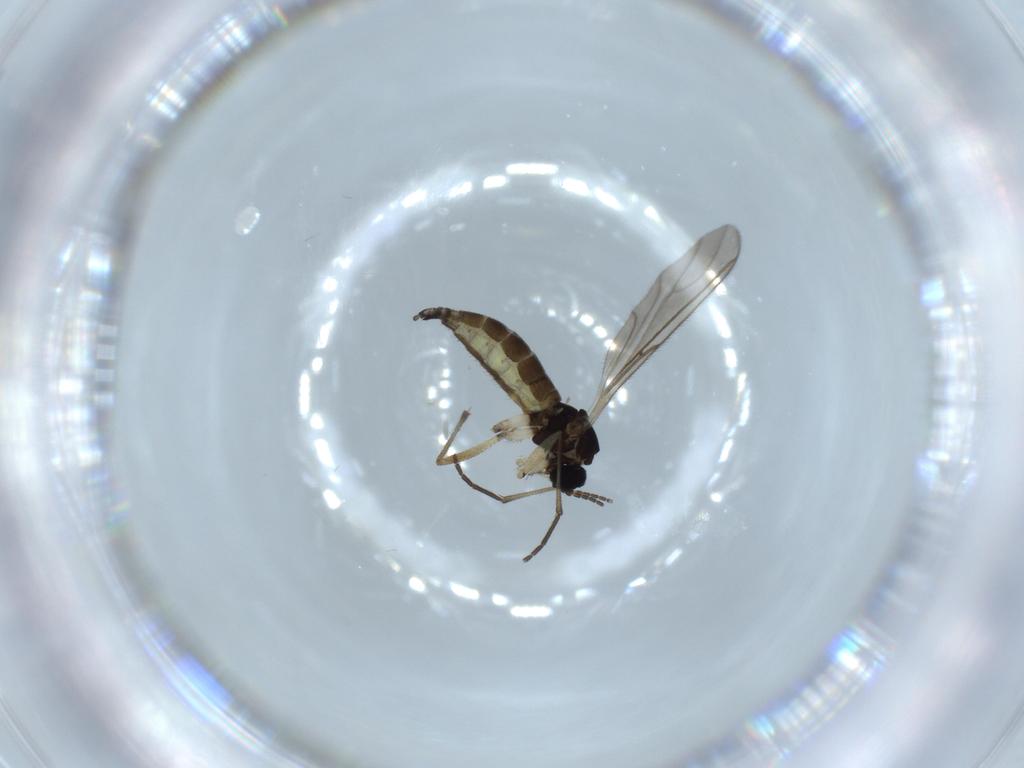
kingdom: Animalia
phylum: Arthropoda
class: Insecta
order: Diptera
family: Sciaridae
